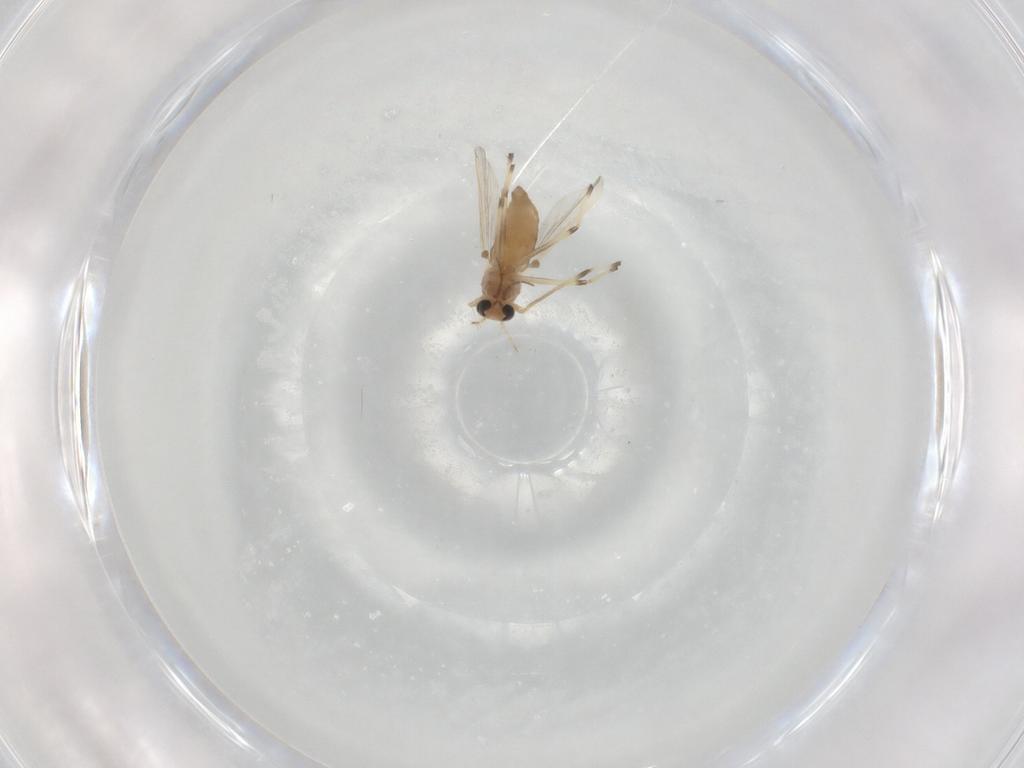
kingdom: Animalia
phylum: Arthropoda
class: Insecta
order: Diptera
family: Chironomidae
